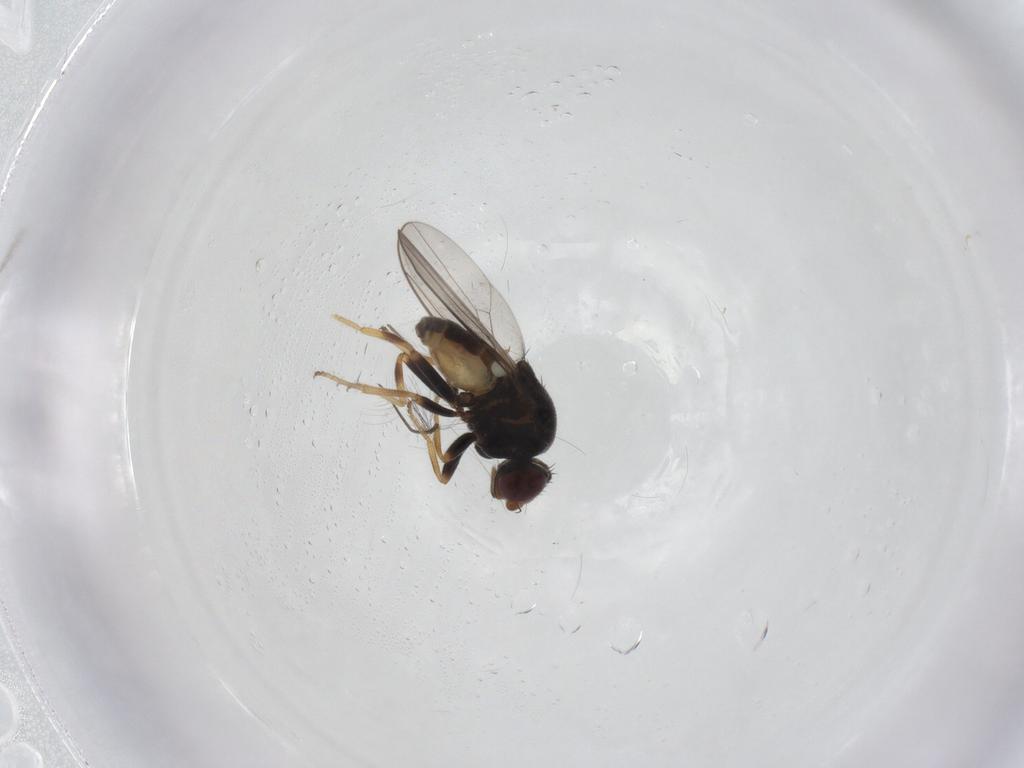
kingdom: Animalia
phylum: Arthropoda
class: Insecta
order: Diptera
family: Chloropidae
